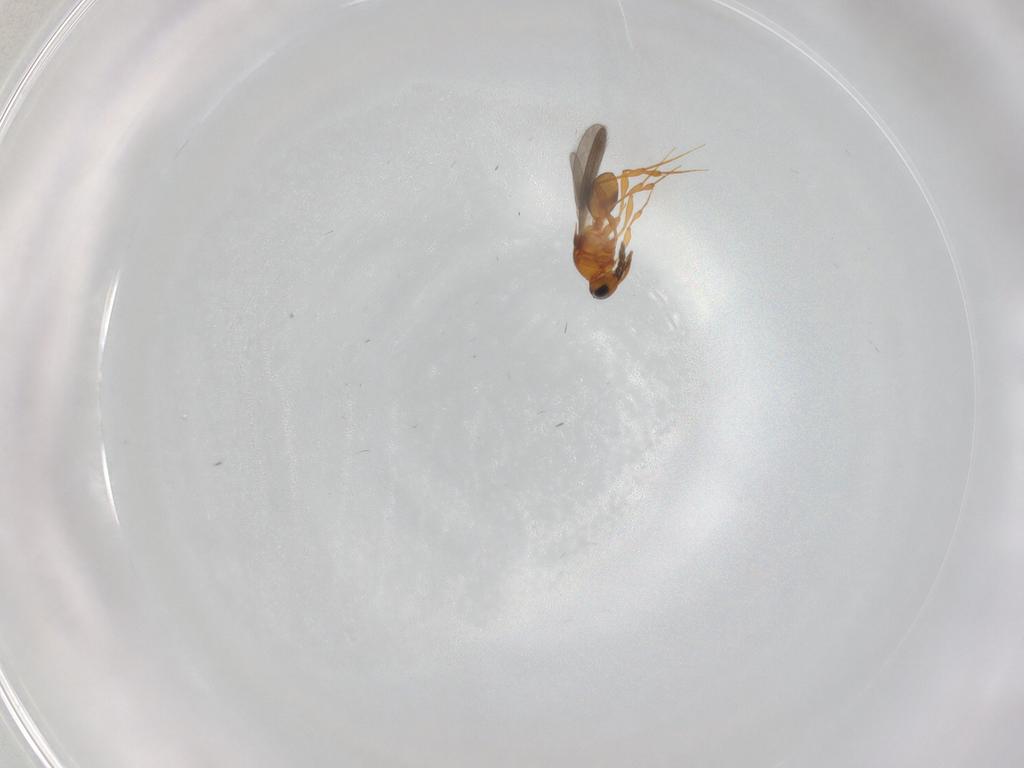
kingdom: Animalia
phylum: Arthropoda
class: Insecta
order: Hymenoptera
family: Platygastridae
